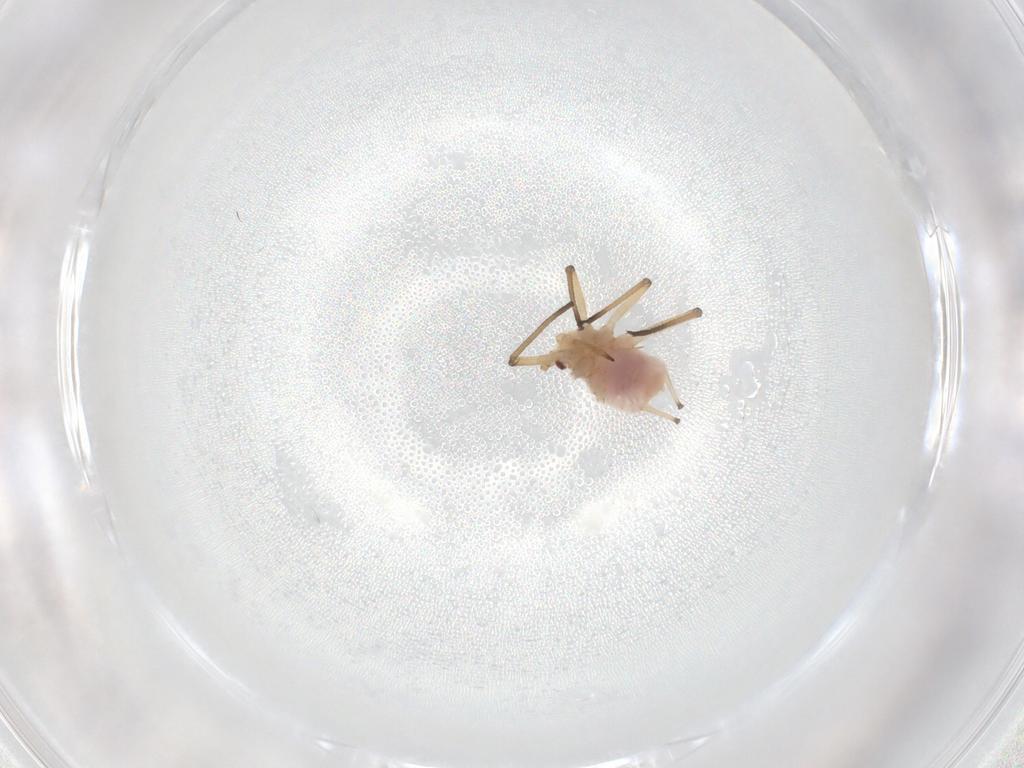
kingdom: Animalia
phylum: Arthropoda
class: Insecta
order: Hemiptera
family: Aphididae
